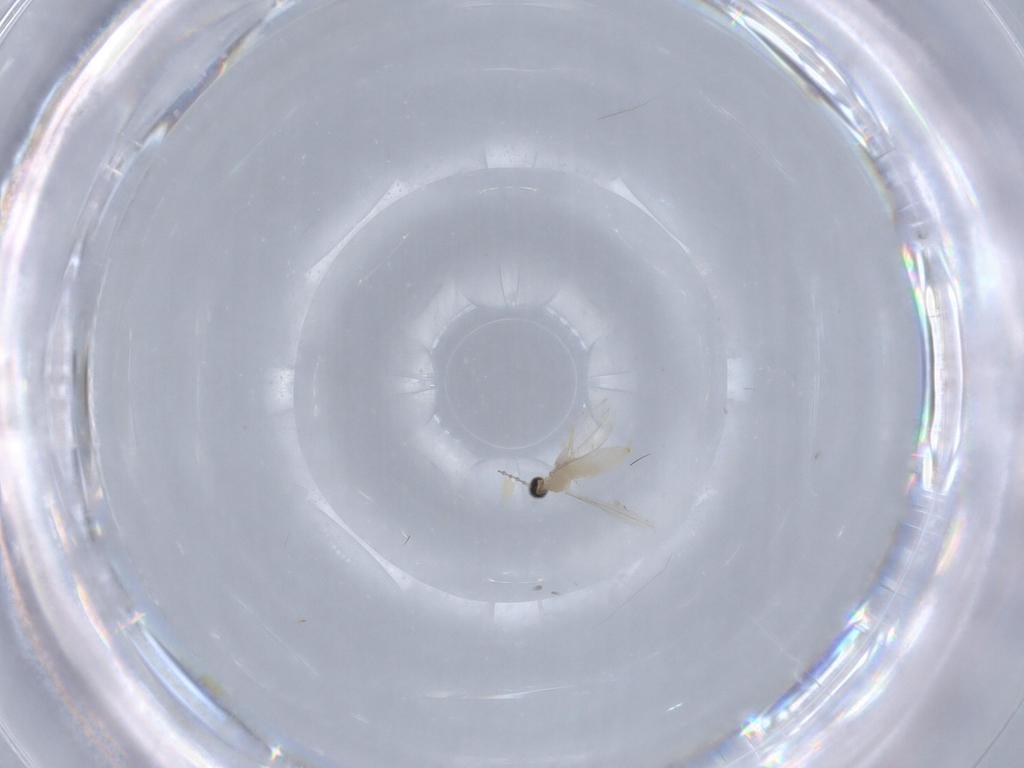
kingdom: Animalia
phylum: Arthropoda
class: Insecta
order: Diptera
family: Cecidomyiidae
